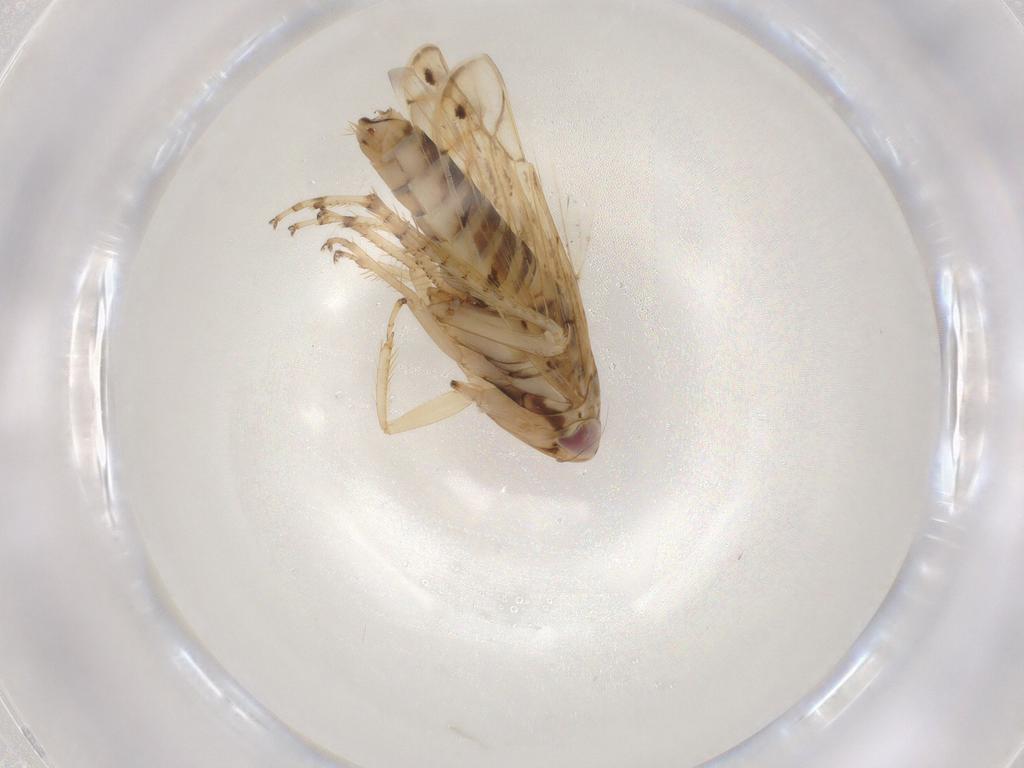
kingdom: Animalia
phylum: Arthropoda
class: Insecta
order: Hemiptera
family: Cicadellidae
